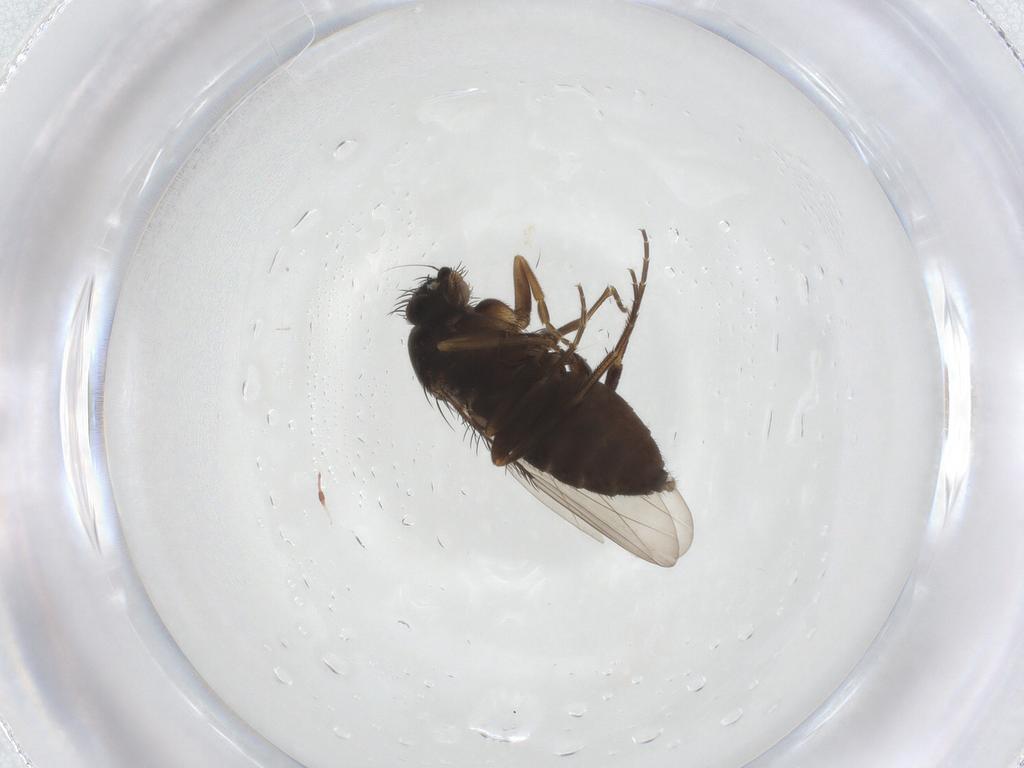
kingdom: Animalia
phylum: Arthropoda
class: Insecta
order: Diptera
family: Phoridae
